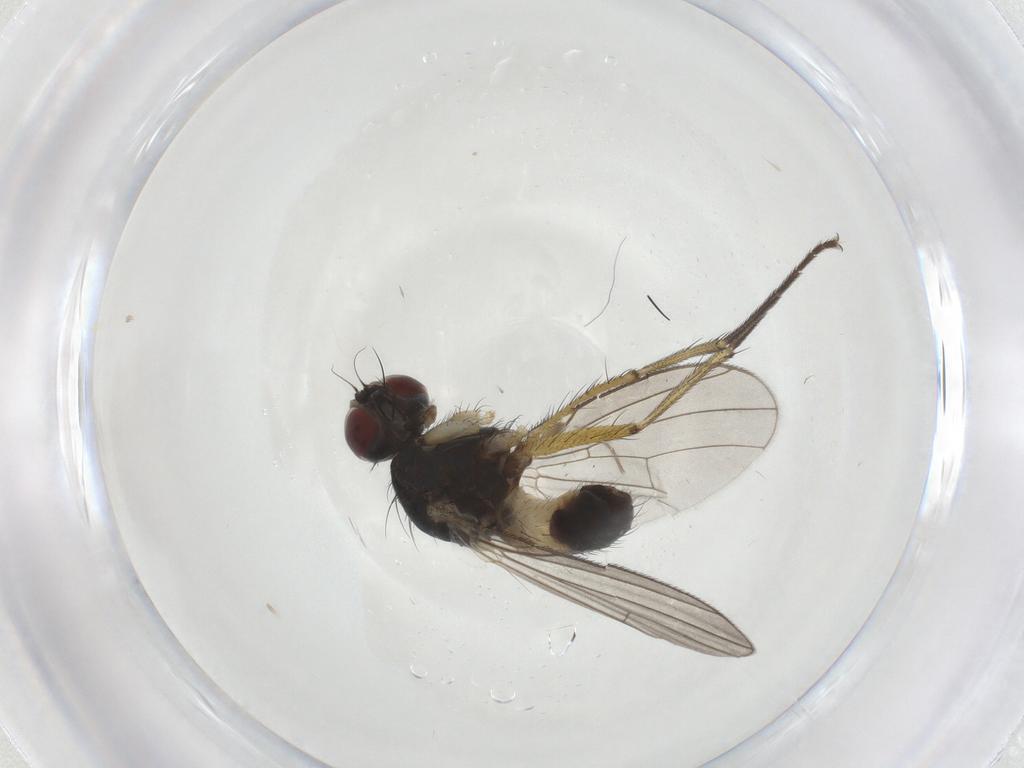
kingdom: Animalia
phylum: Arthropoda
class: Insecta
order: Diptera
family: Muscidae
